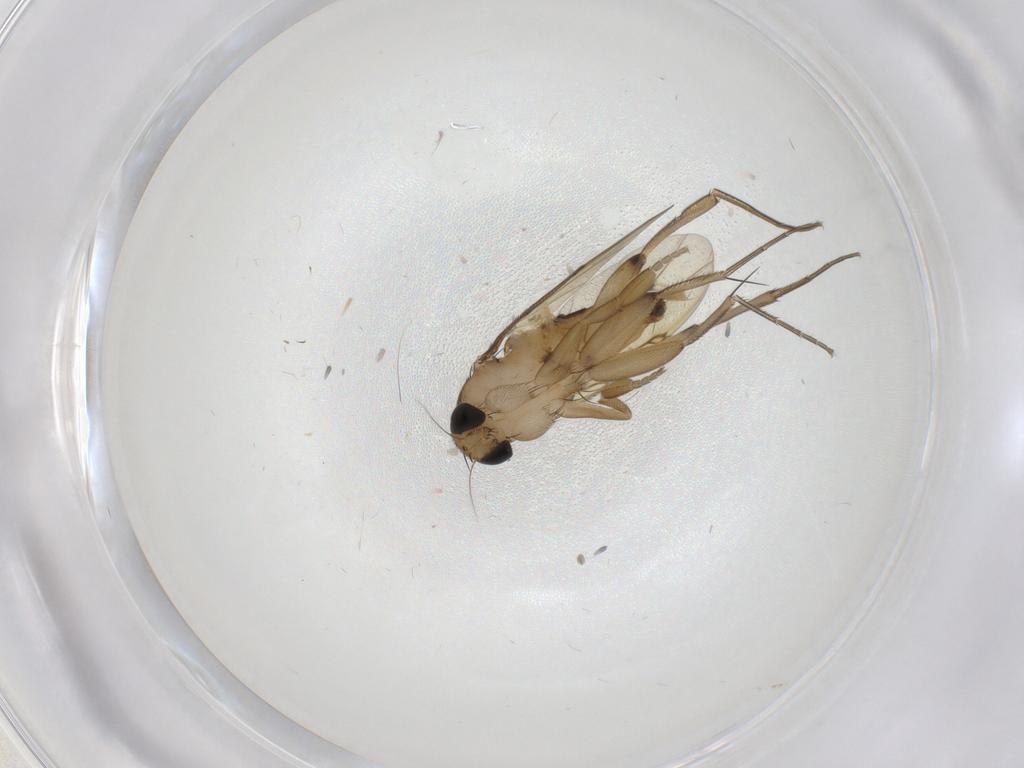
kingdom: Animalia
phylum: Arthropoda
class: Insecta
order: Diptera
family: Phoridae
